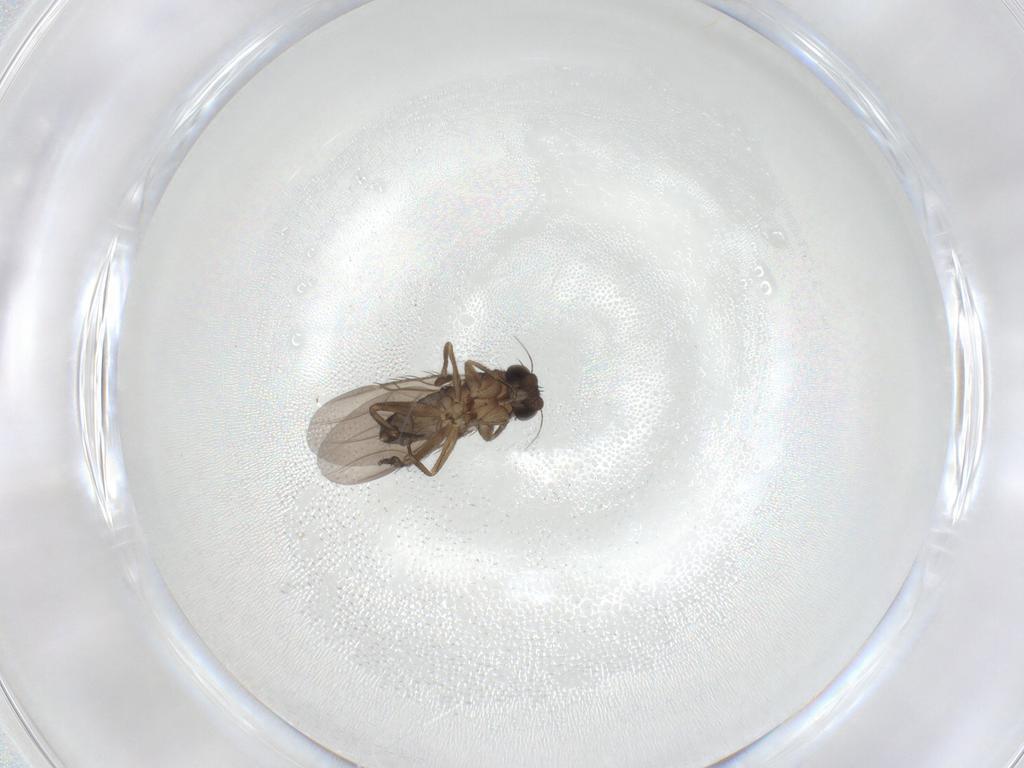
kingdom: Animalia
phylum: Arthropoda
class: Insecta
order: Diptera
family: Phoridae
